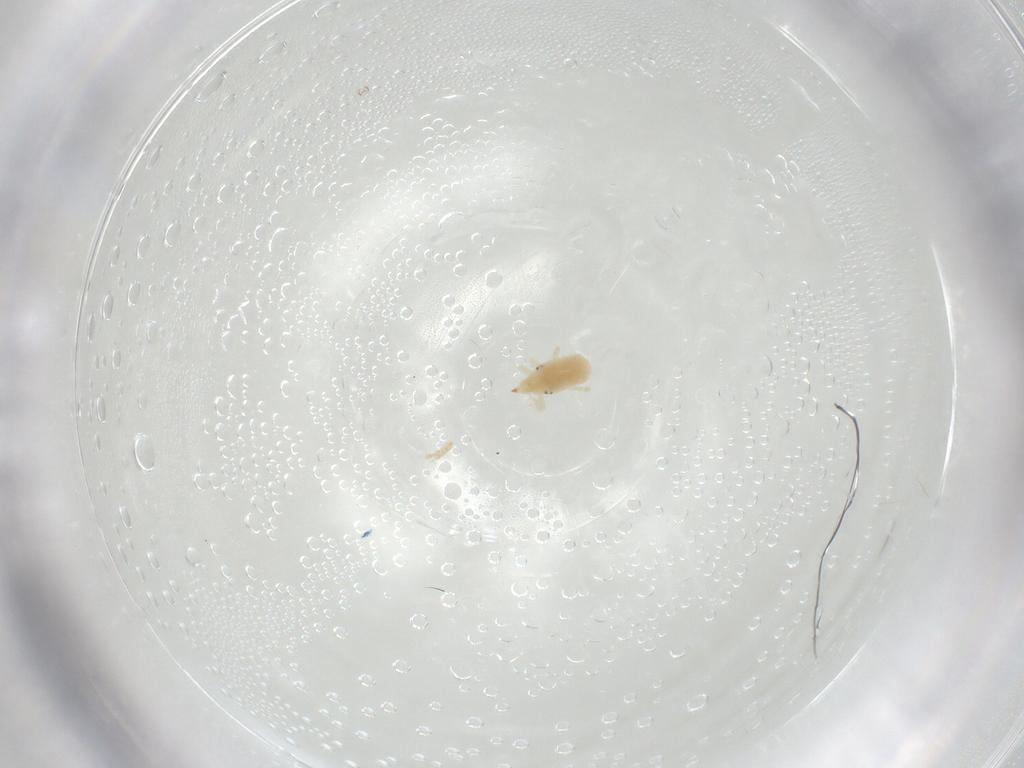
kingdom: Animalia
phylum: Arthropoda
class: Arachnida
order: Trombidiformes
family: Bdellidae
